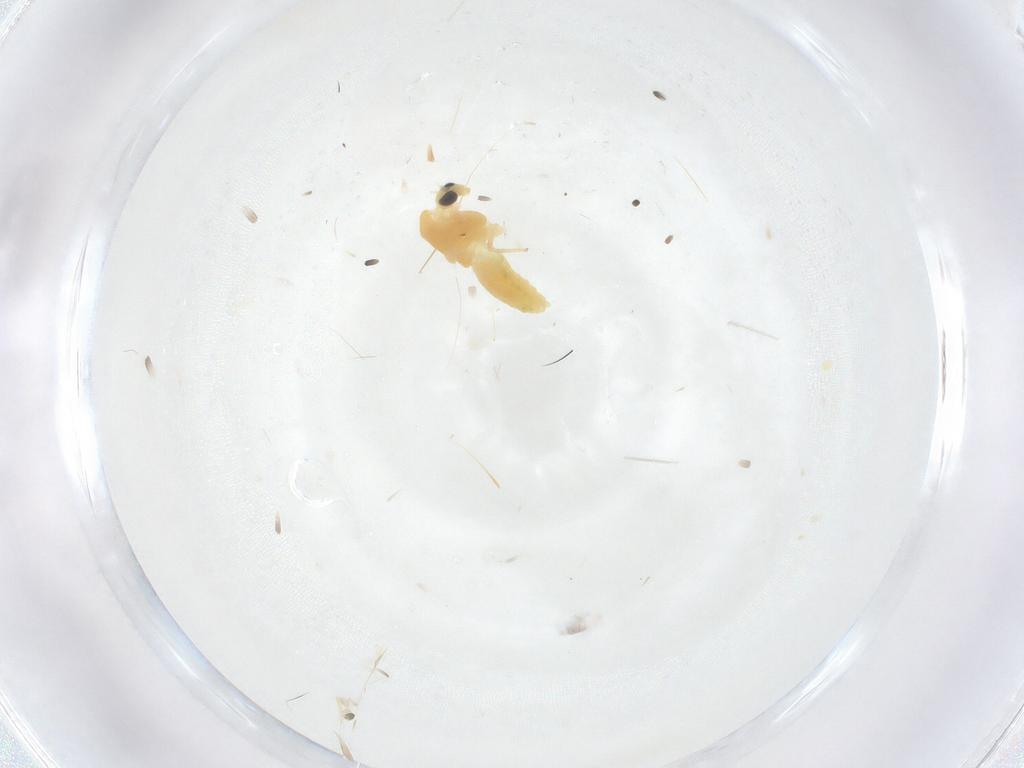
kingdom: Animalia
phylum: Arthropoda
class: Insecta
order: Diptera
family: Chironomidae
